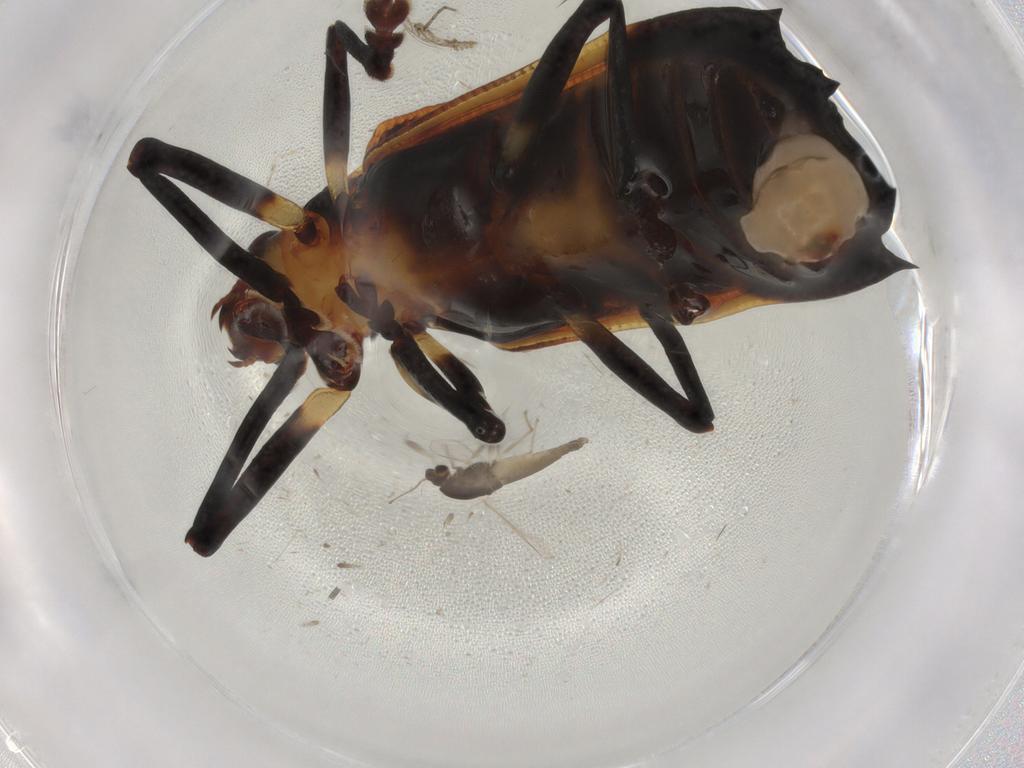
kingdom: Animalia
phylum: Arthropoda
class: Insecta
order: Diptera
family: Chironomidae
